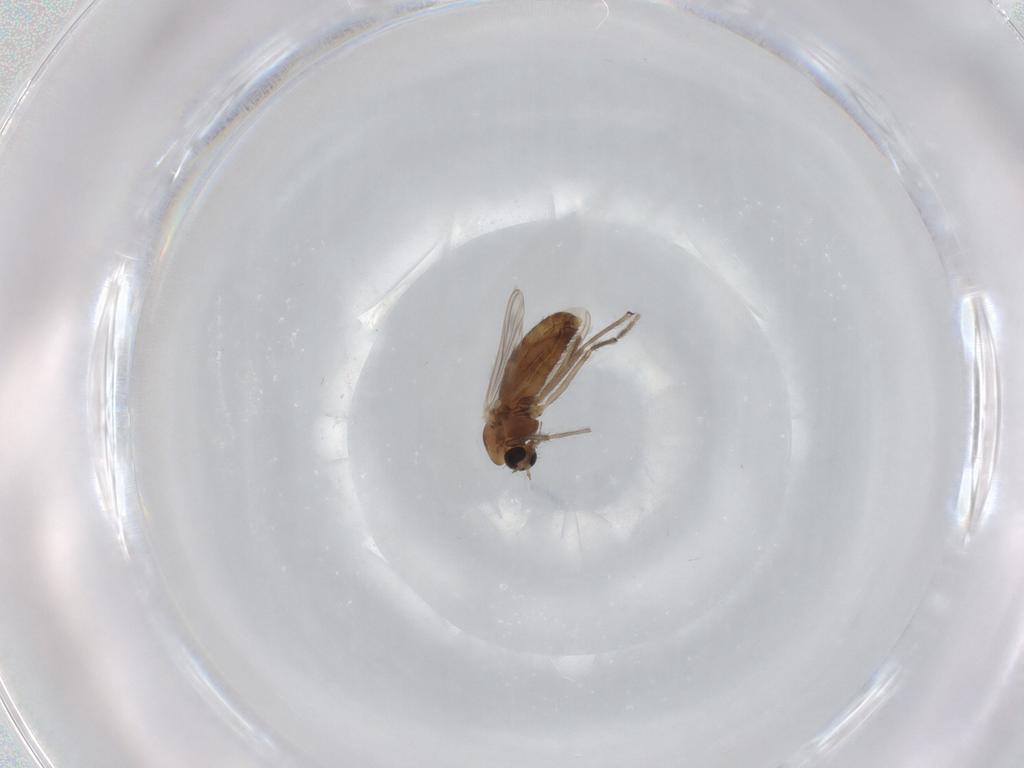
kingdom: Animalia
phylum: Arthropoda
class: Insecta
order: Diptera
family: Chironomidae
